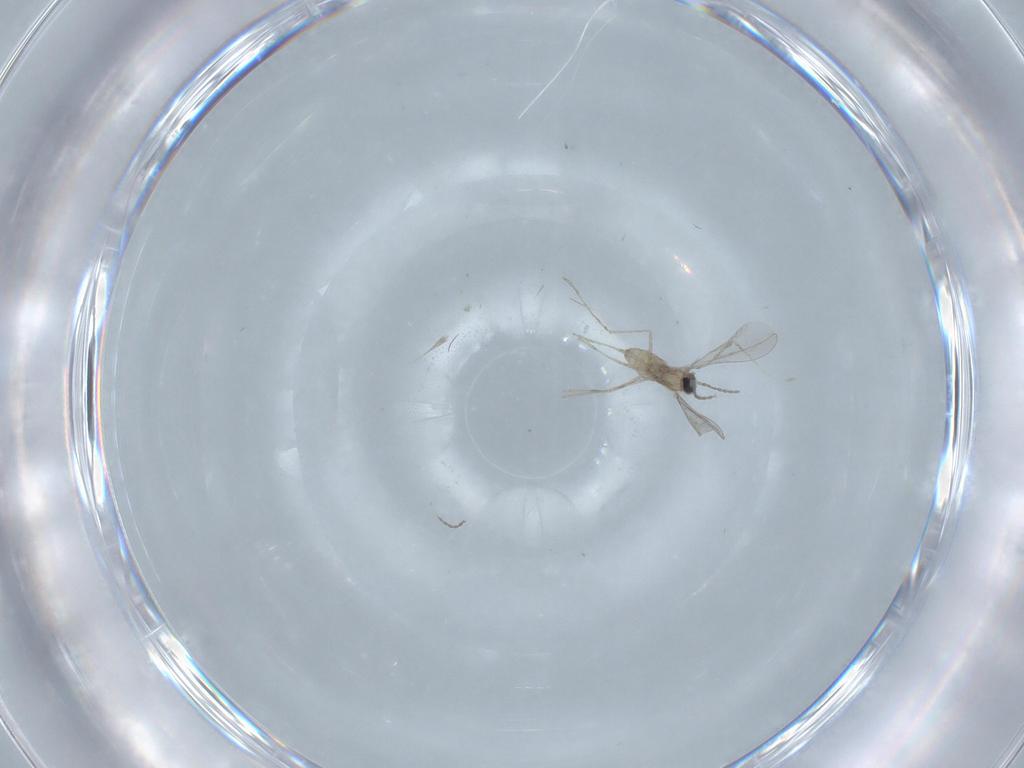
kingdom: Animalia
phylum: Arthropoda
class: Insecta
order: Diptera
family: Cecidomyiidae
